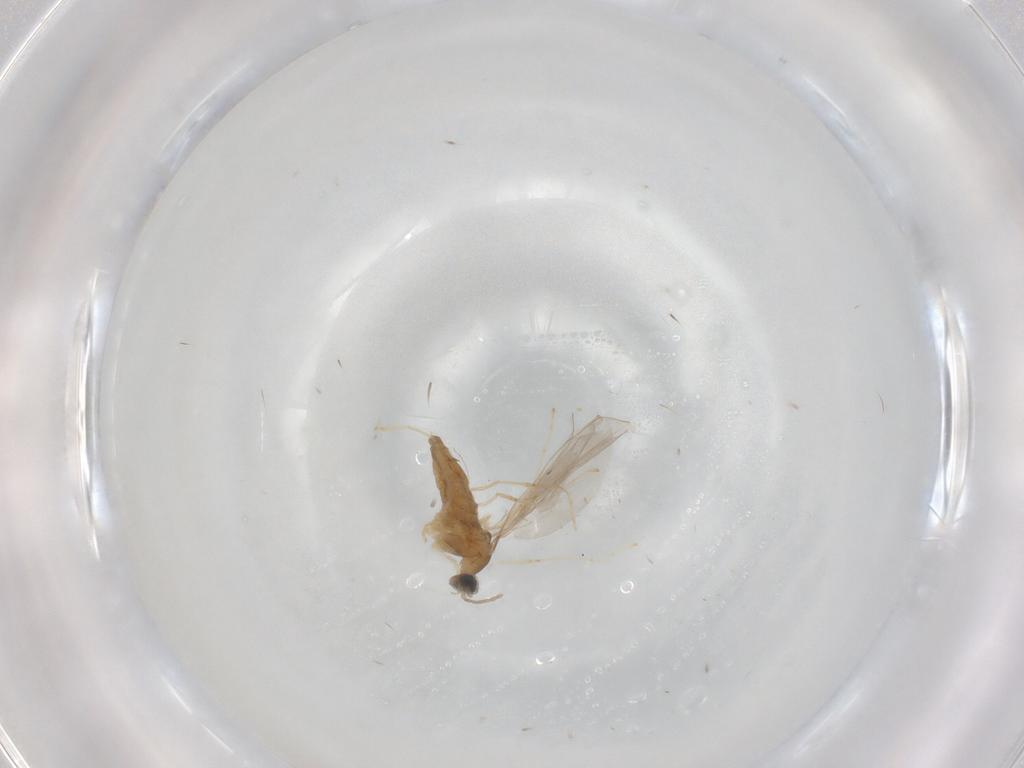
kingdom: Animalia
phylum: Arthropoda
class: Insecta
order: Diptera
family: Cecidomyiidae
